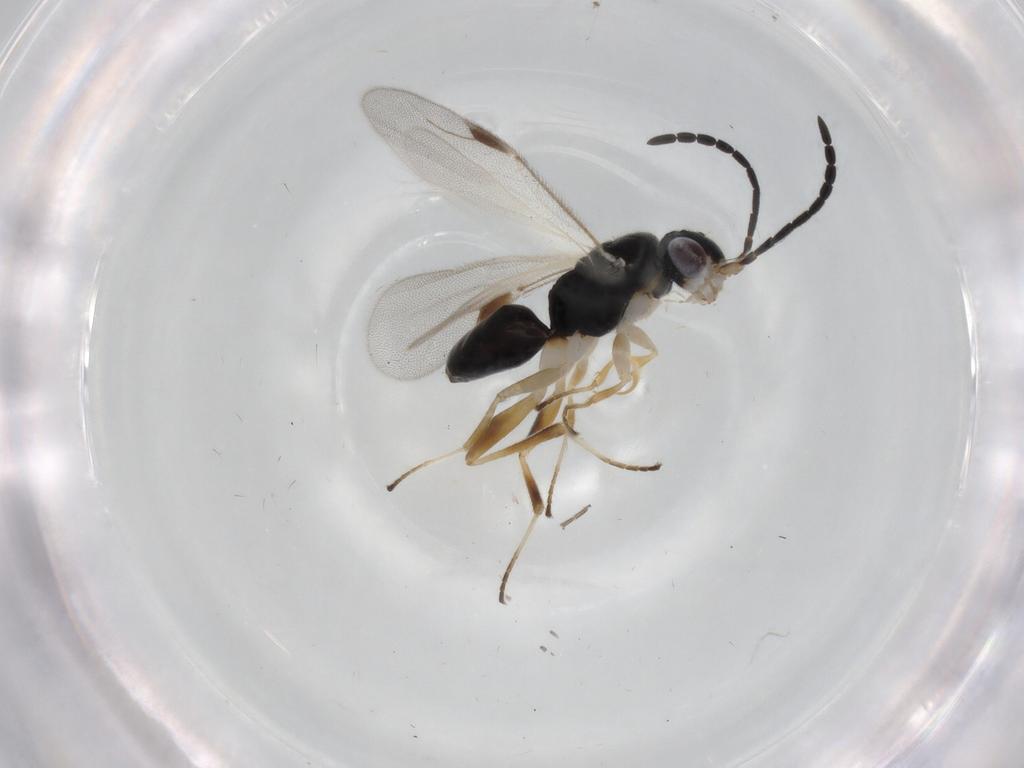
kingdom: Animalia
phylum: Arthropoda
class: Insecta
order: Hymenoptera
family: Dryinidae
